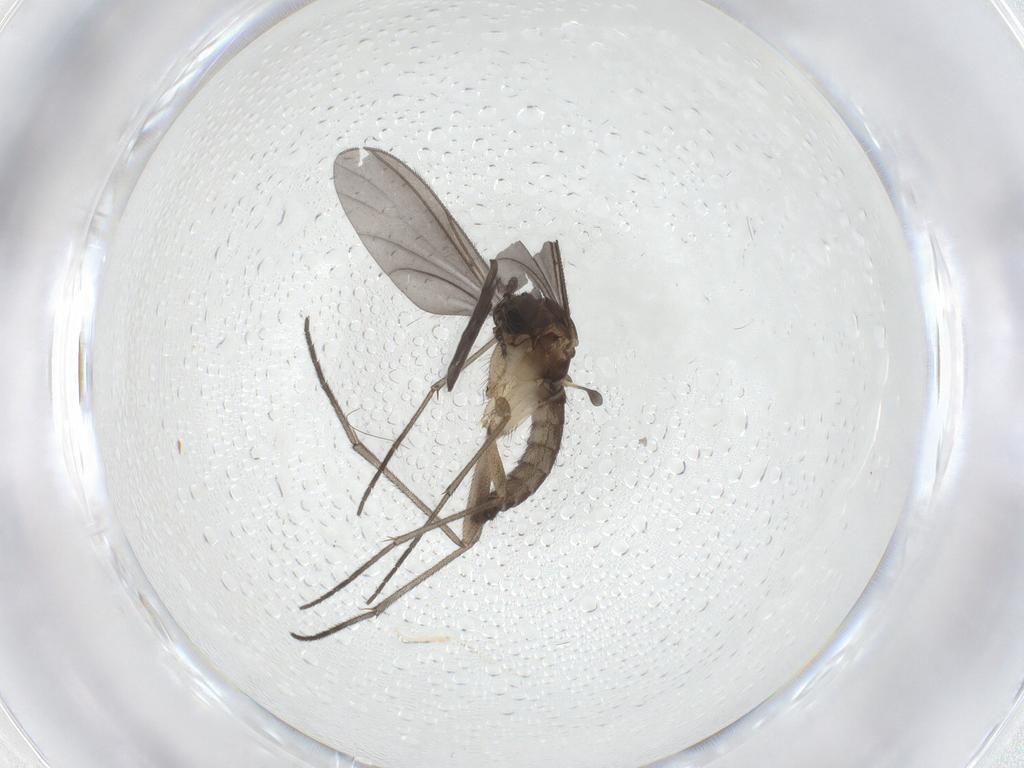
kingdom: Animalia
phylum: Arthropoda
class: Insecta
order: Diptera
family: Sciaridae
